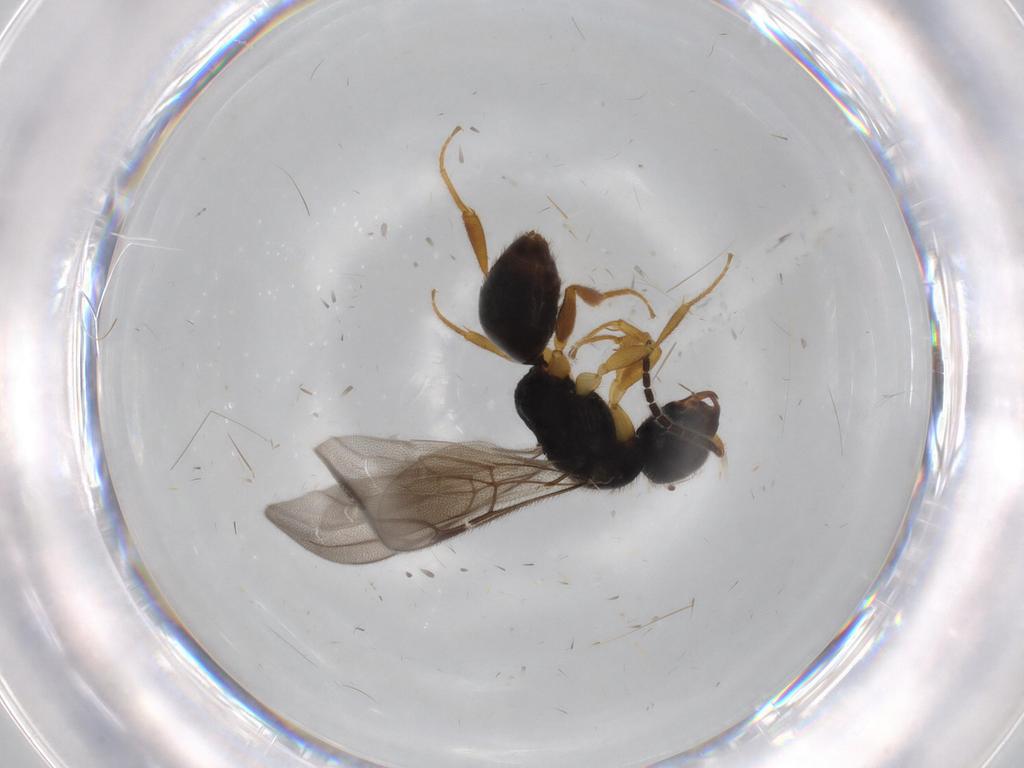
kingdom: Animalia
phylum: Arthropoda
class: Insecta
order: Hymenoptera
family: Bethylidae
